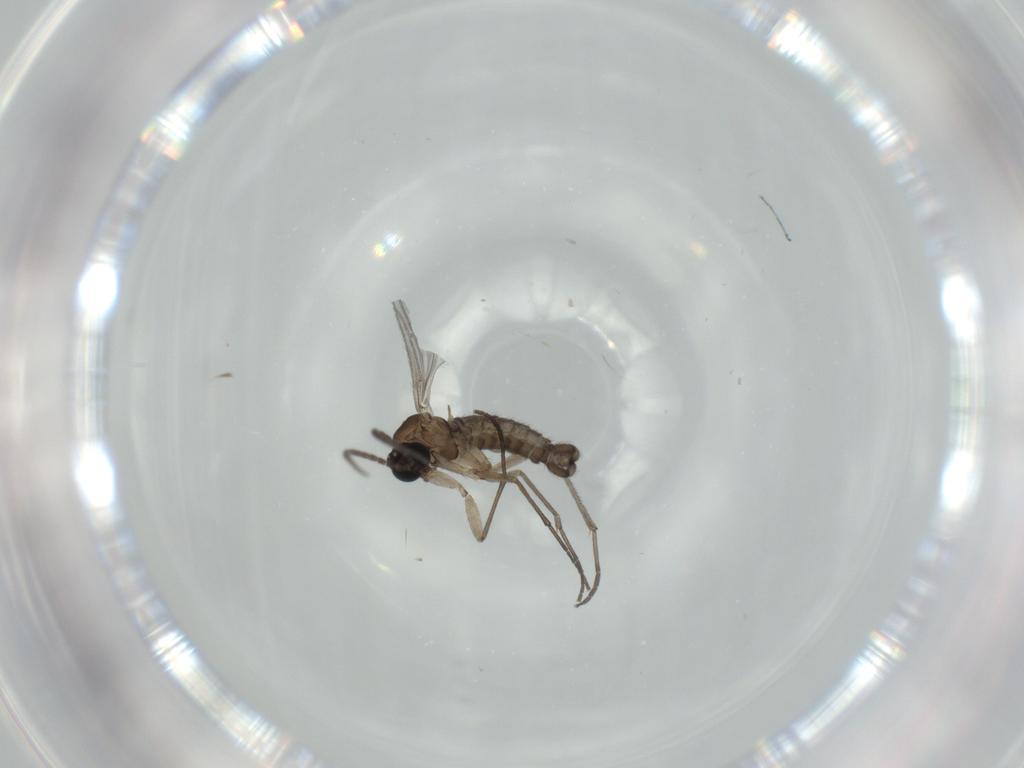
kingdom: Animalia
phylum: Arthropoda
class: Insecta
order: Diptera
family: Sciaridae
